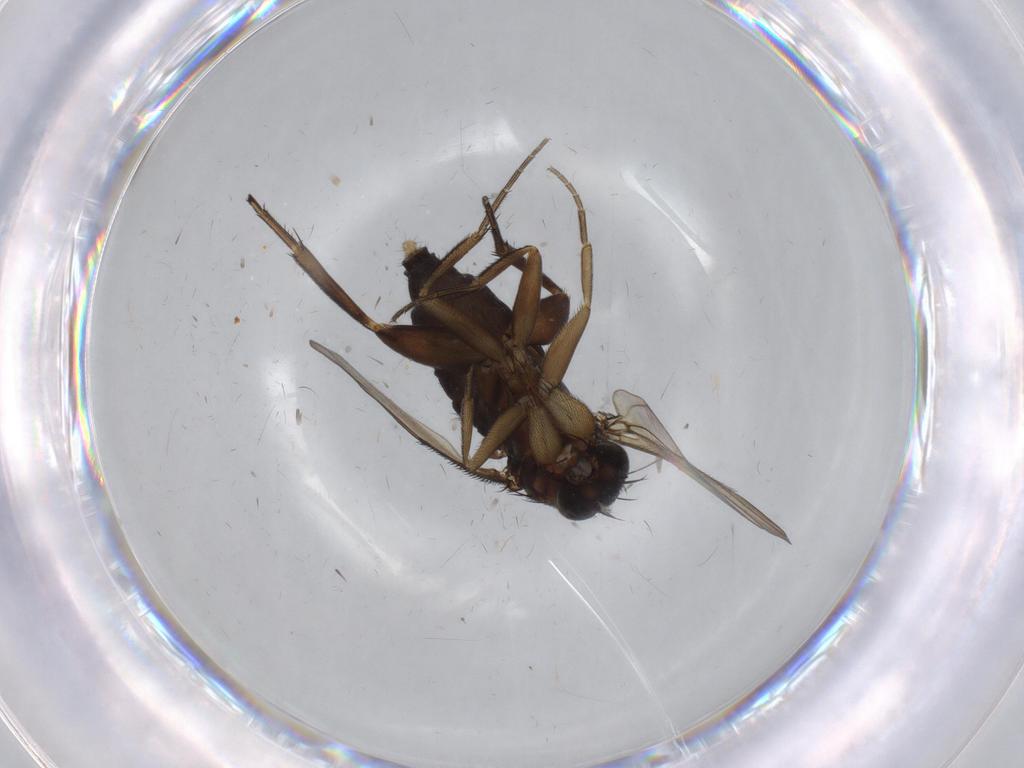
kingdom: Animalia
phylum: Arthropoda
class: Insecta
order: Diptera
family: Phoridae
